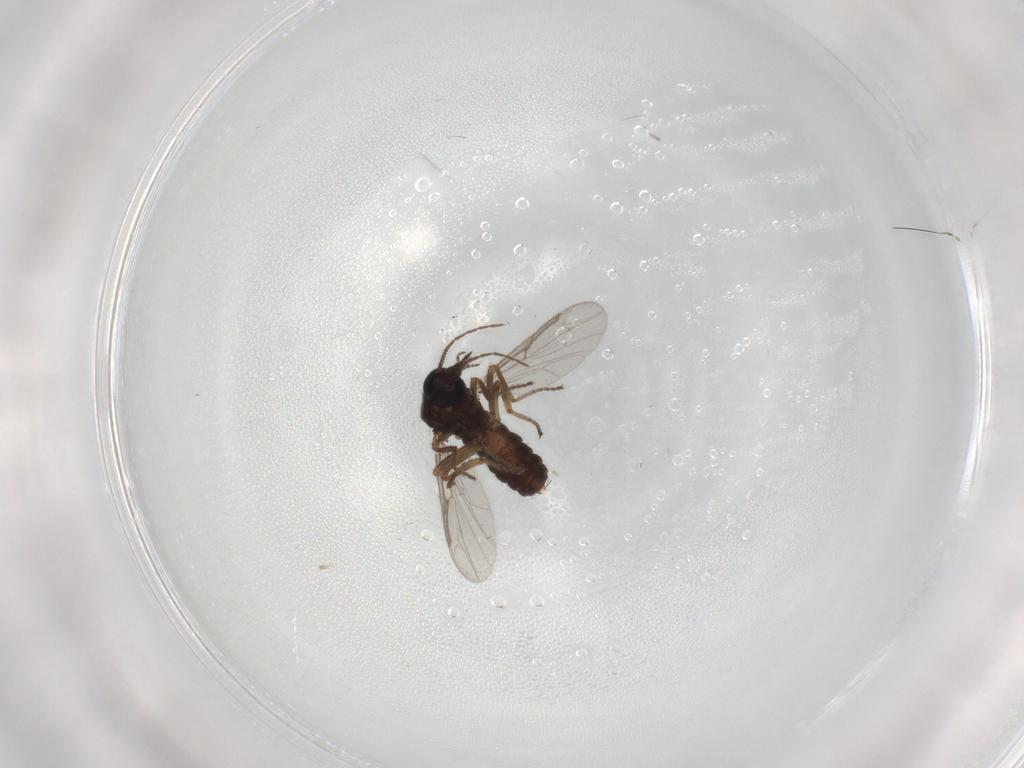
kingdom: Animalia
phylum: Arthropoda
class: Insecta
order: Diptera
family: Ceratopogonidae
